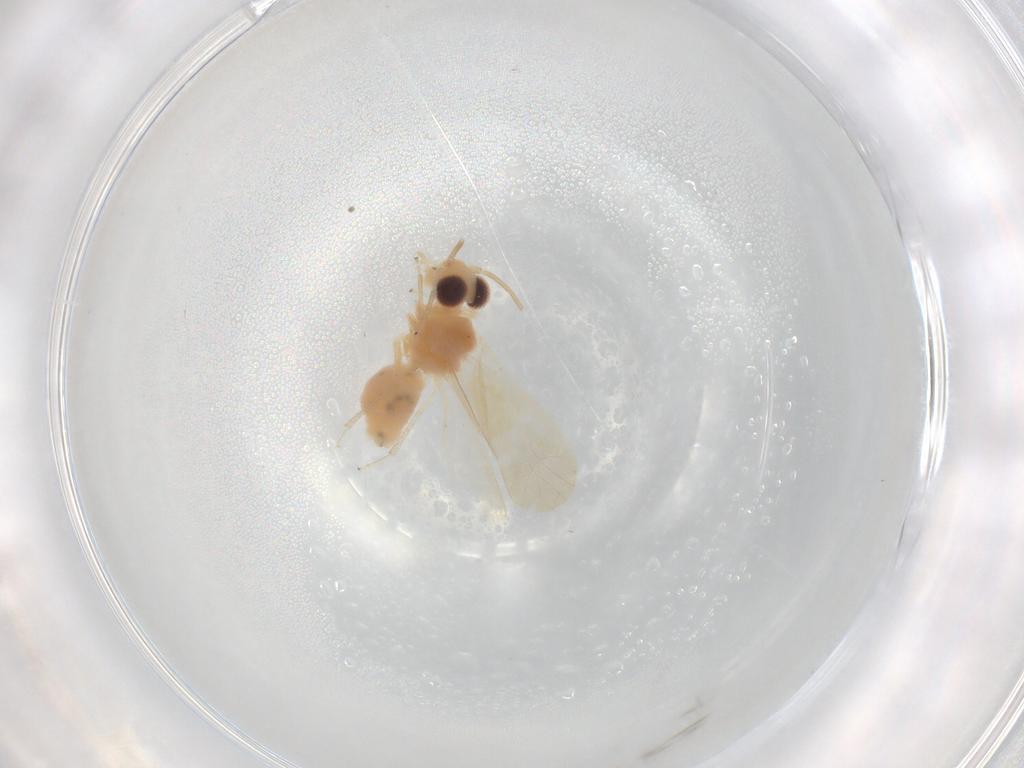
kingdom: Animalia
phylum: Arthropoda
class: Insecta
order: Psocodea
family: Caeciliusidae
